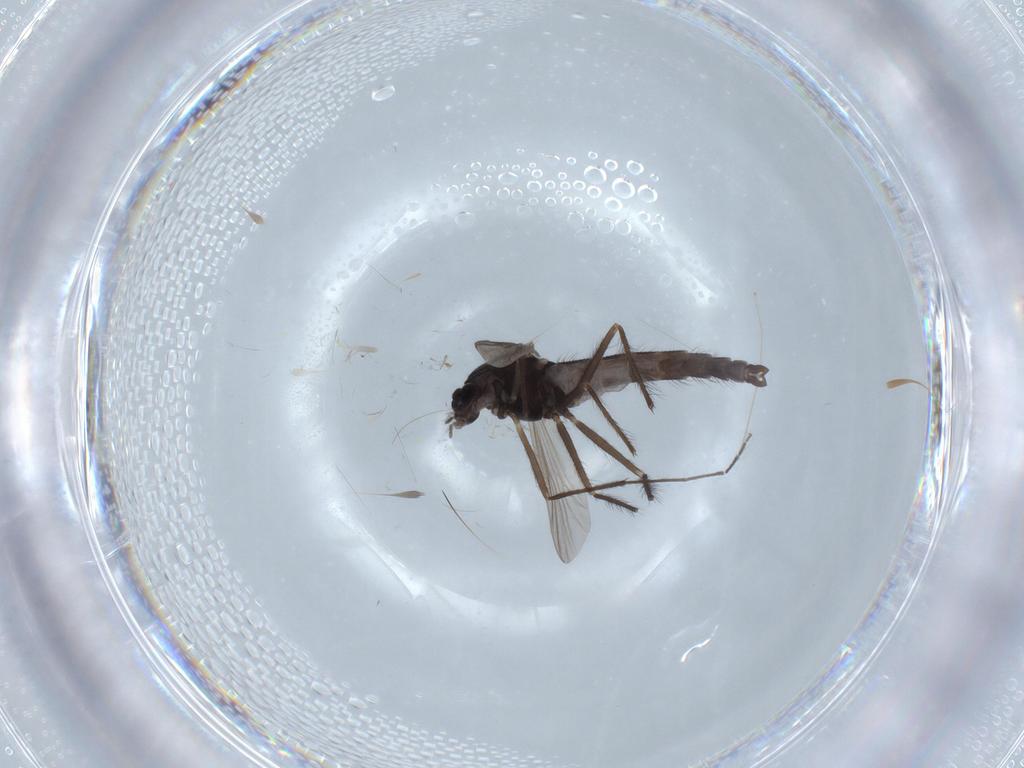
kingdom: Animalia
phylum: Arthropoda
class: Insecta
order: Diptera
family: Cecidomyiidae
